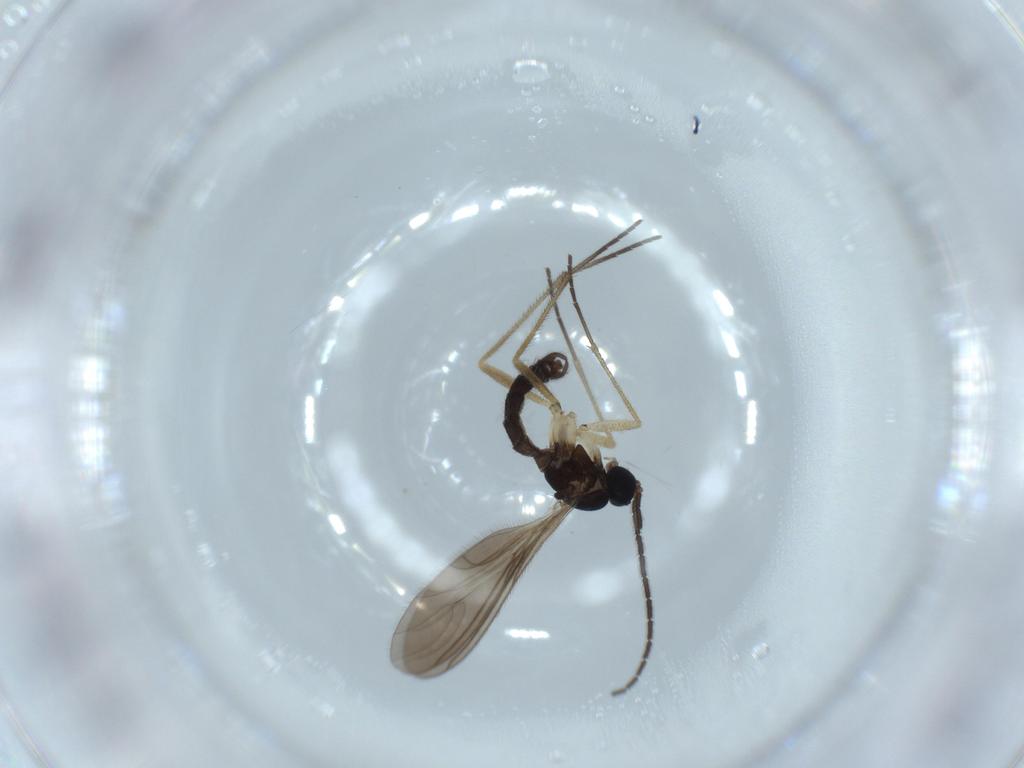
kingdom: Animalia
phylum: Arthropoda
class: Insecta
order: Diptera
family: Sciaridae
